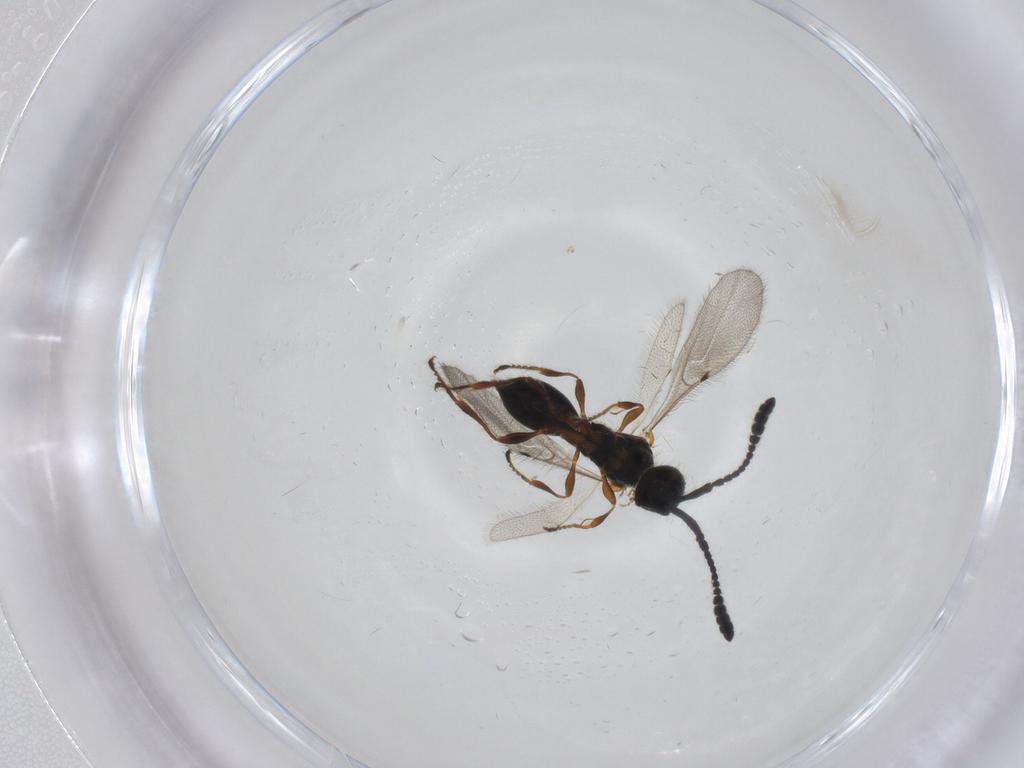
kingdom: Animalia
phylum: Arthropoda
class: Insecta
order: Hymenoptera
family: Diapriidae
